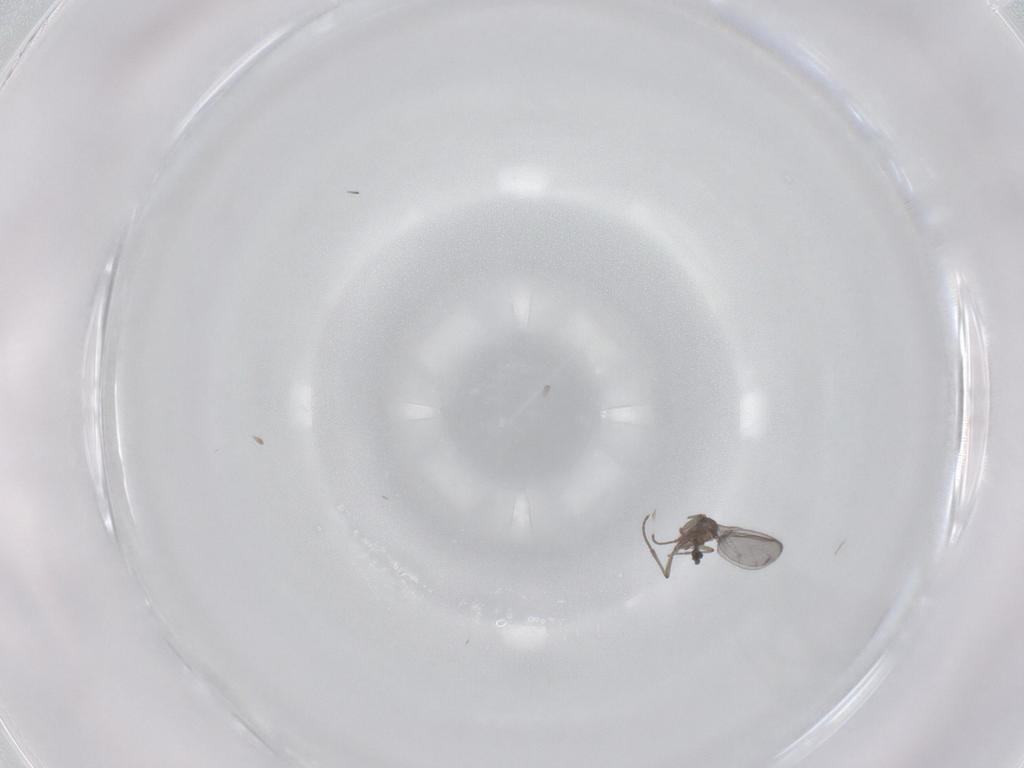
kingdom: Animalia
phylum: Arthropoda
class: Insecta
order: Diptera
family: Sciaridae
